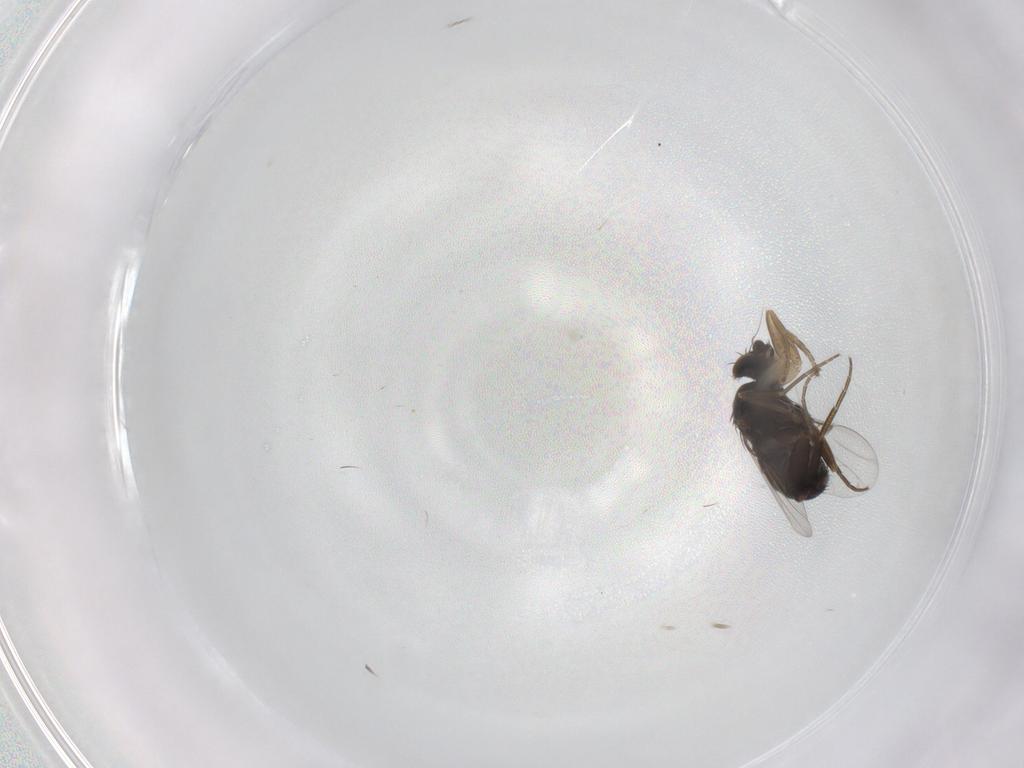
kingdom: Animalia
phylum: Arthropoda
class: Insecta
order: Diptera
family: Phoridae
